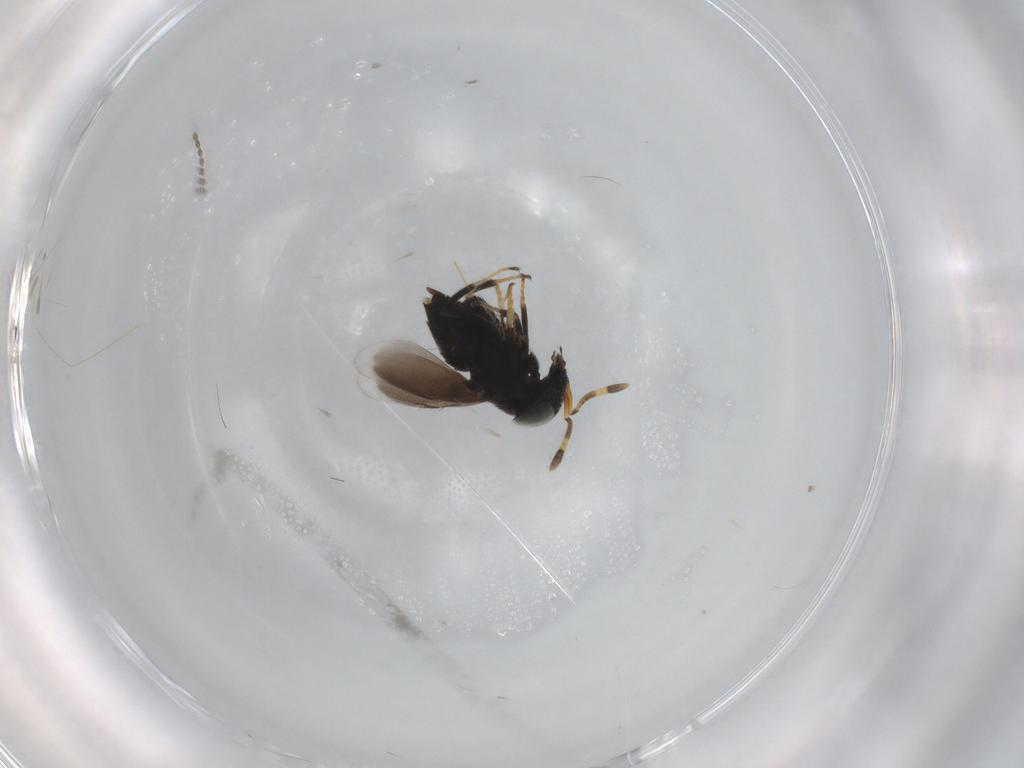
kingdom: Animalia
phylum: Arthropoda
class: Insecta
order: Hymenoptera
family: Encyrtidae
